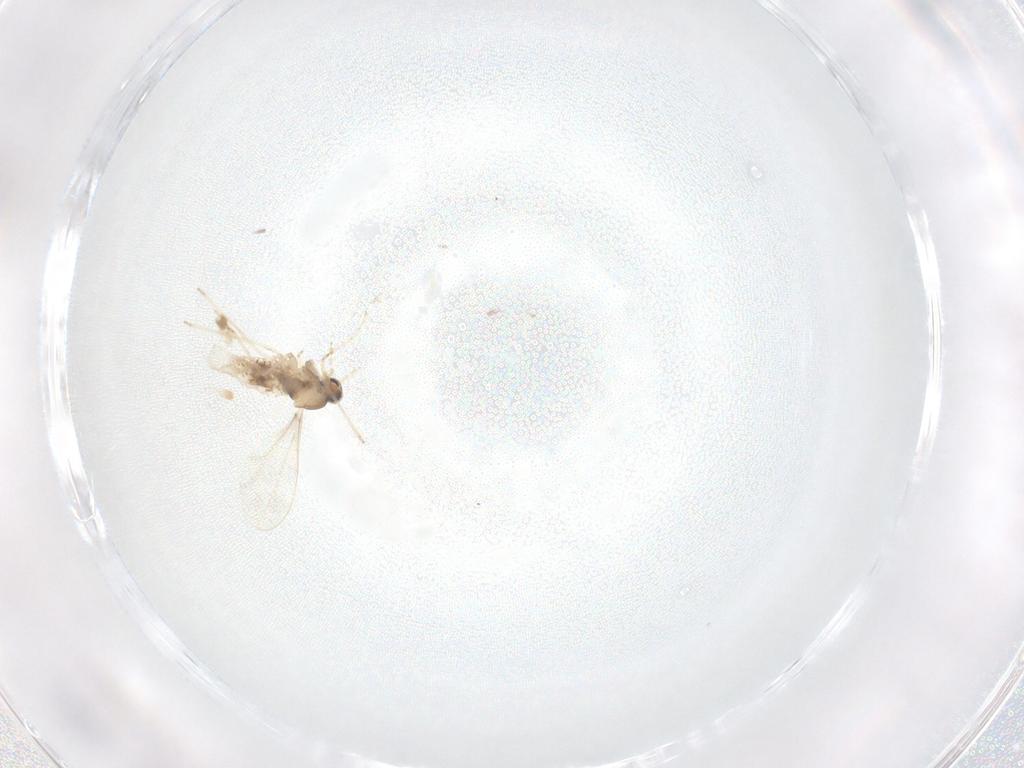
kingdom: Animalia
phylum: Arthropoda
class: Insecta
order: Diptera
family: Cecidomyiidae
